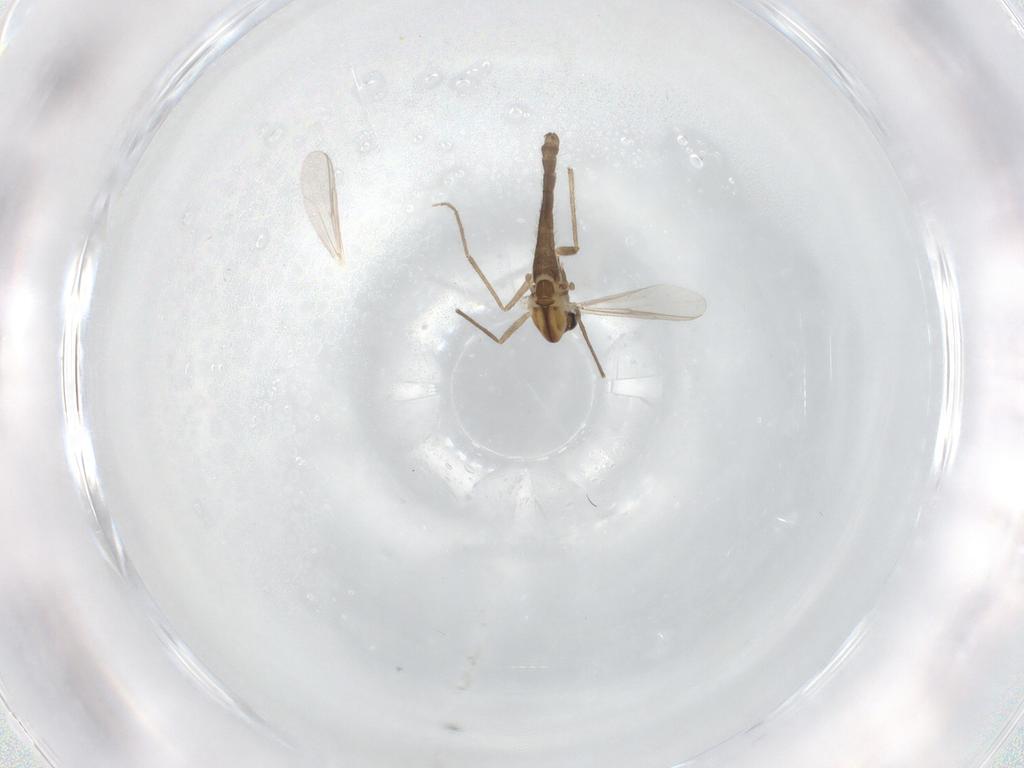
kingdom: Animalia
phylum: Arthropoda
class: Insecta
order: Diptera
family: Chironomidae
